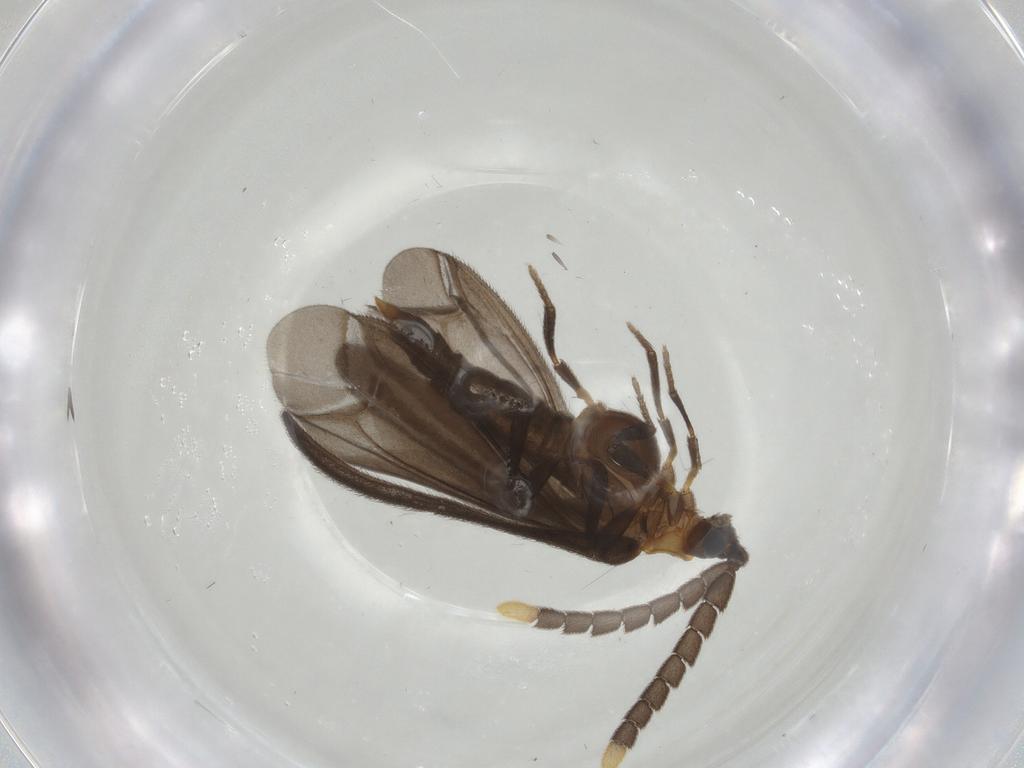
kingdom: Animalia
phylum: Arthropoda
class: Insecta
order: Coleoptera
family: Lycidae
